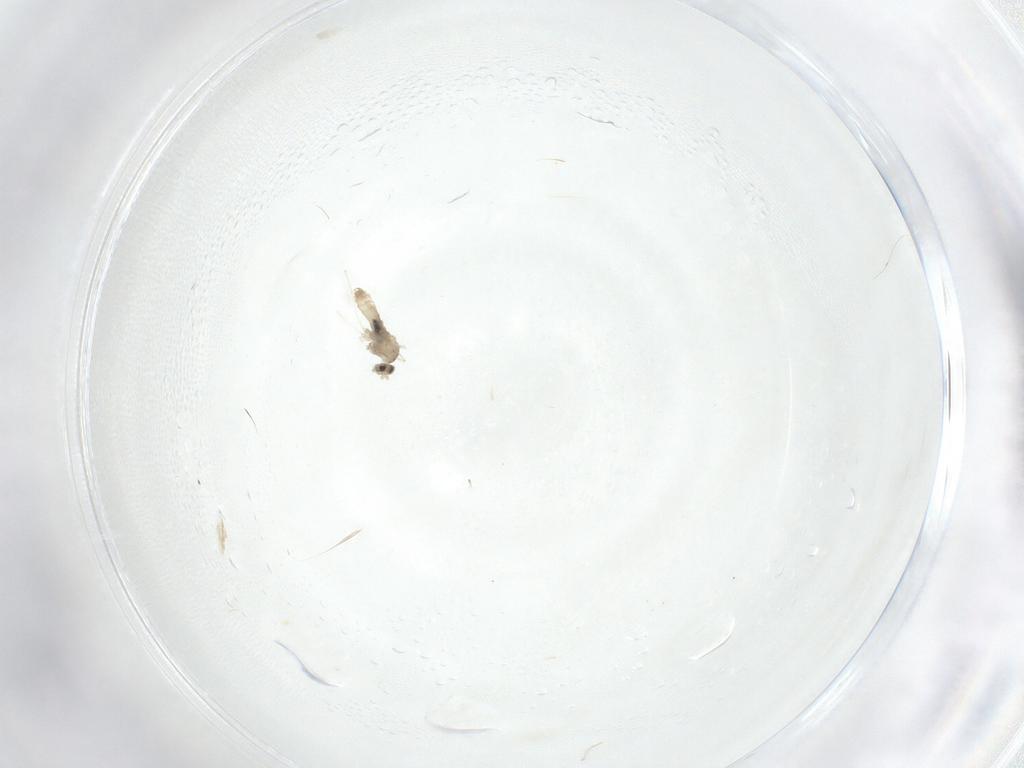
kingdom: Animalia
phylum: Arthropoda
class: Insecta
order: Diptera
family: Cecidomyiidae
